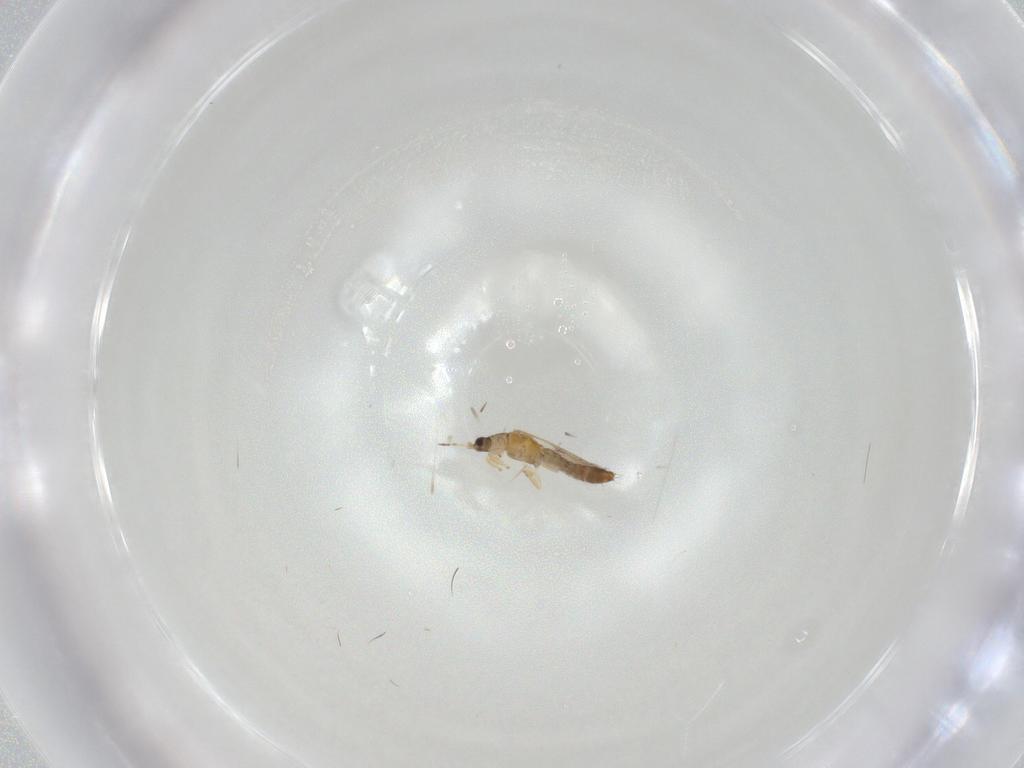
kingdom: Animalia
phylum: Arthropoda
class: Insecta
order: Thysanoptera
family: Thripidae
